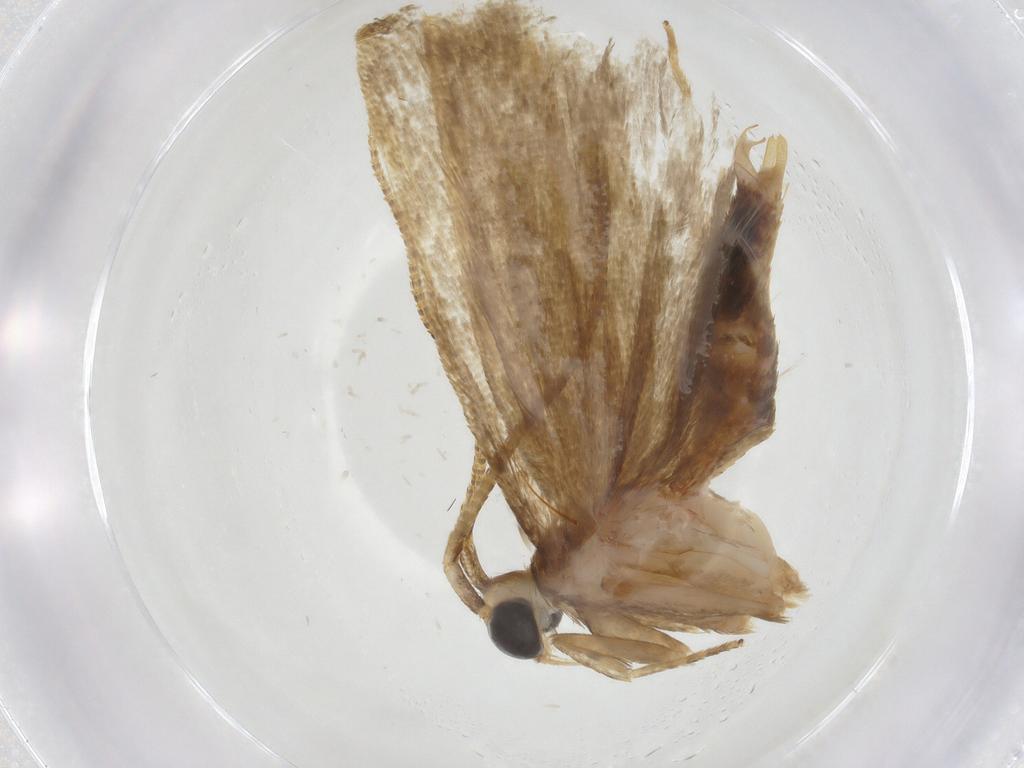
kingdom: Animalia
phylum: Arthropoda
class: Insecta
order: Lepidoptera
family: Autostichidae
